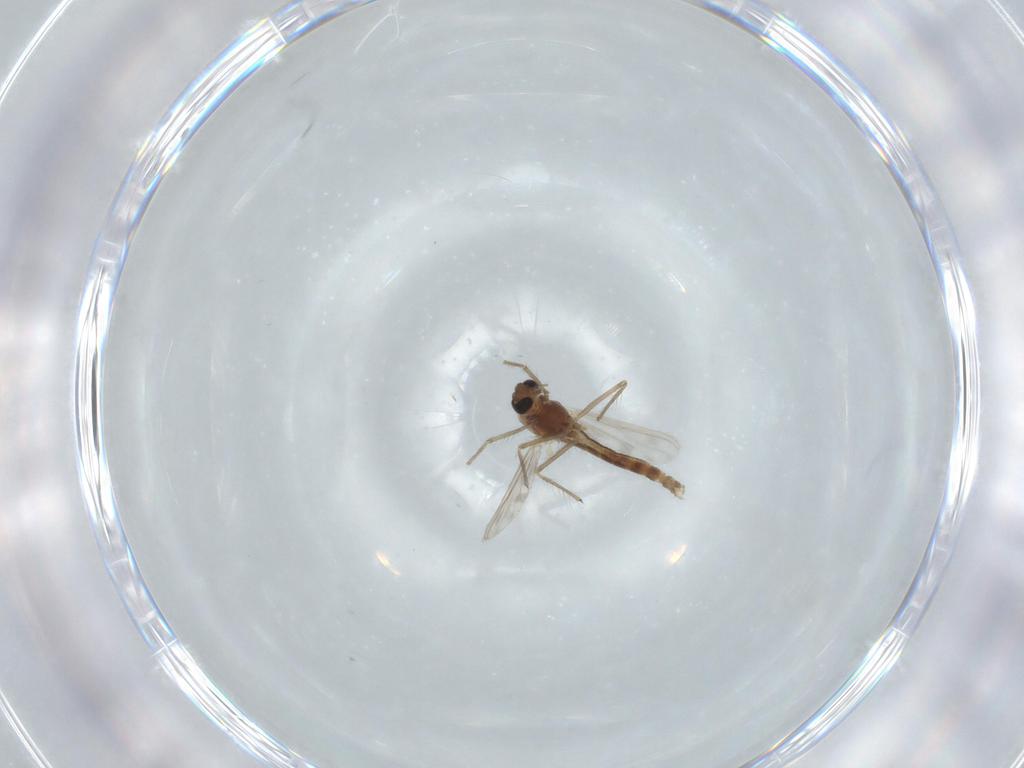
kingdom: Animalia
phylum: Arthropoda
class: Insecta
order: Diptera
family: Ceratopogonidae
